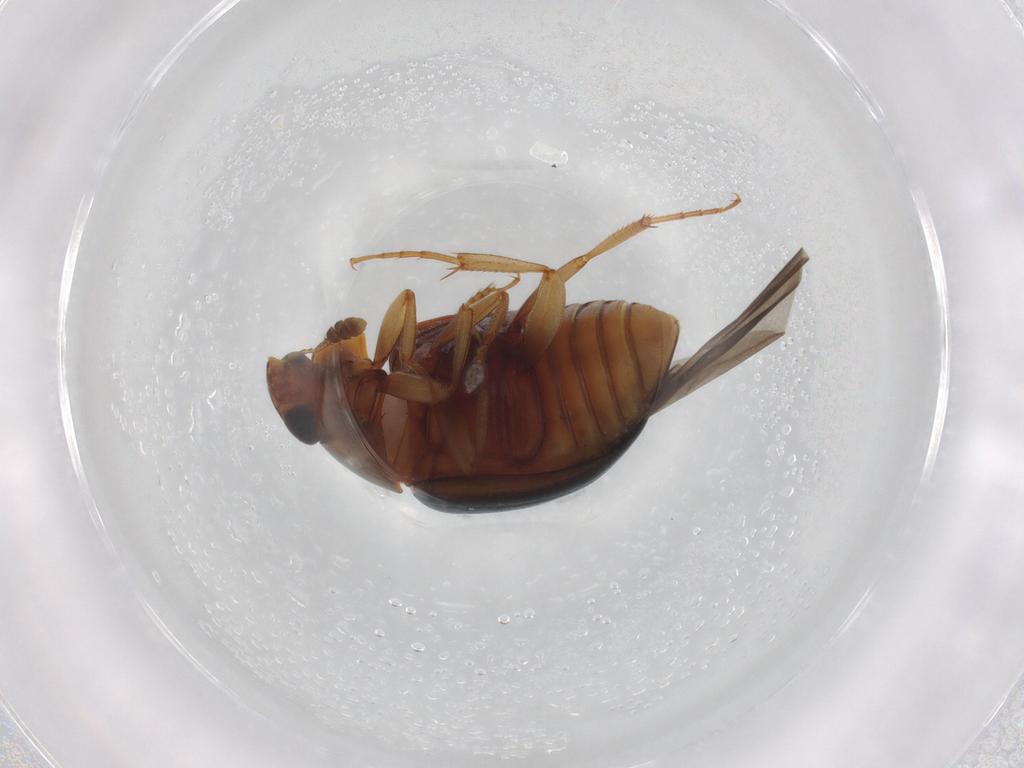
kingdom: Animalia
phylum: Arthropoda
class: Insecta
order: Coleoptera
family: Nitidulidae
